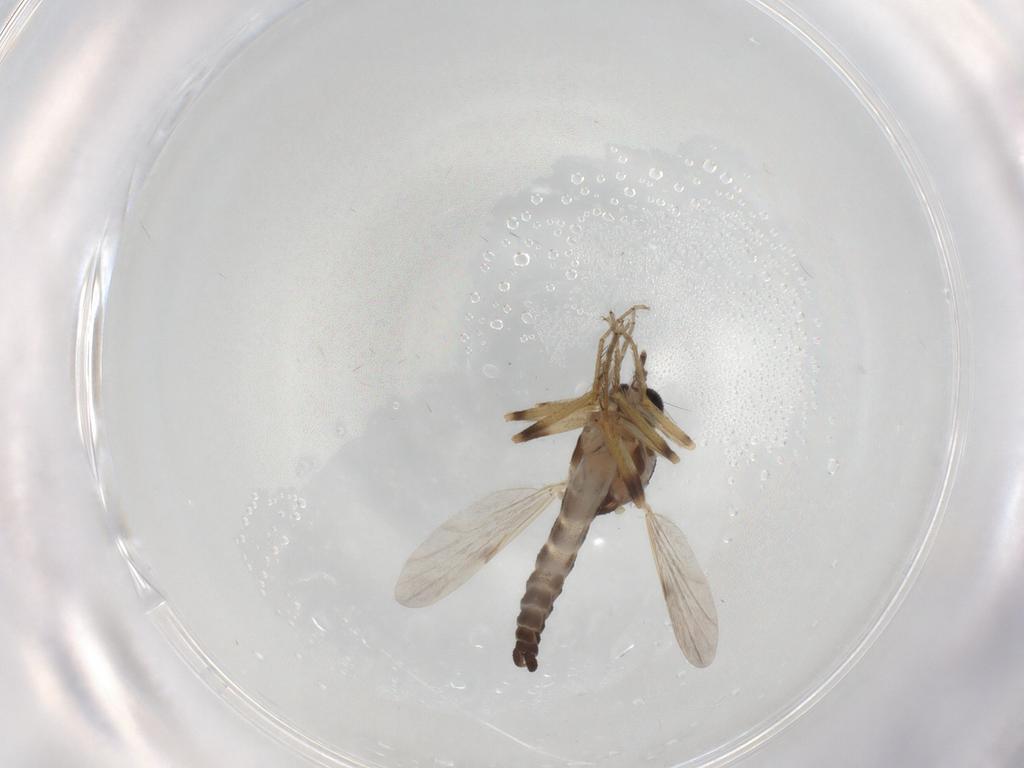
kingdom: Animalia
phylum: Arthropoda
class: Insecta
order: Diptera
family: Ceratopogonidae
